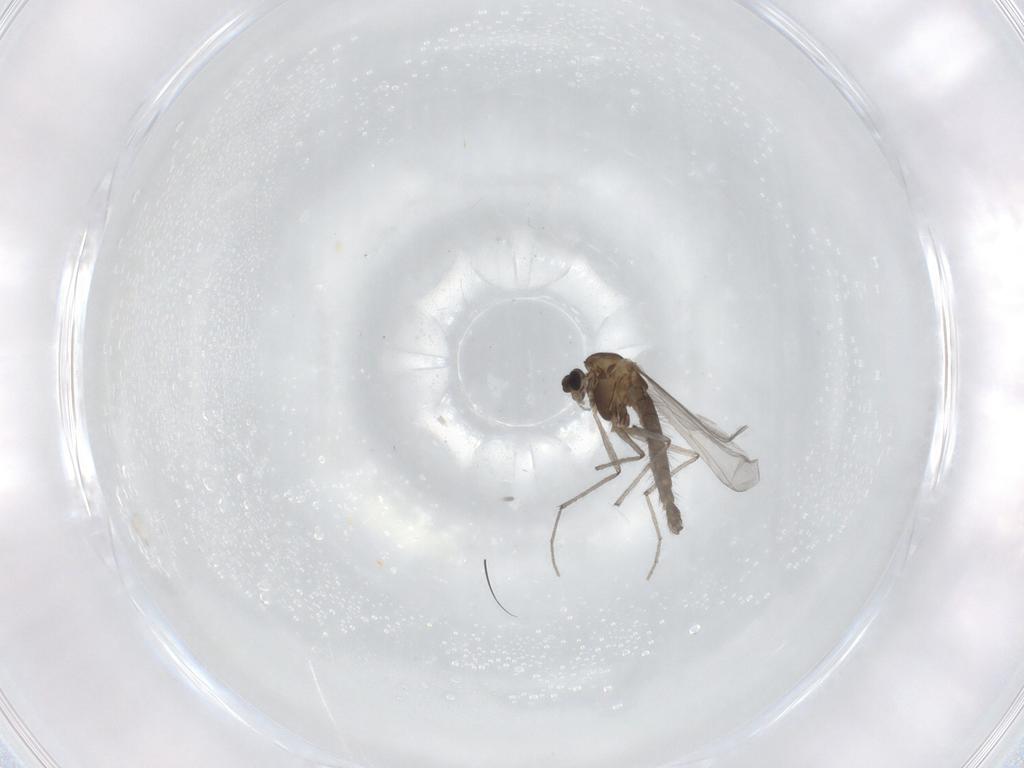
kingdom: Animalia
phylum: Arthropoda
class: Insecta
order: Diptera
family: Chironomidae
